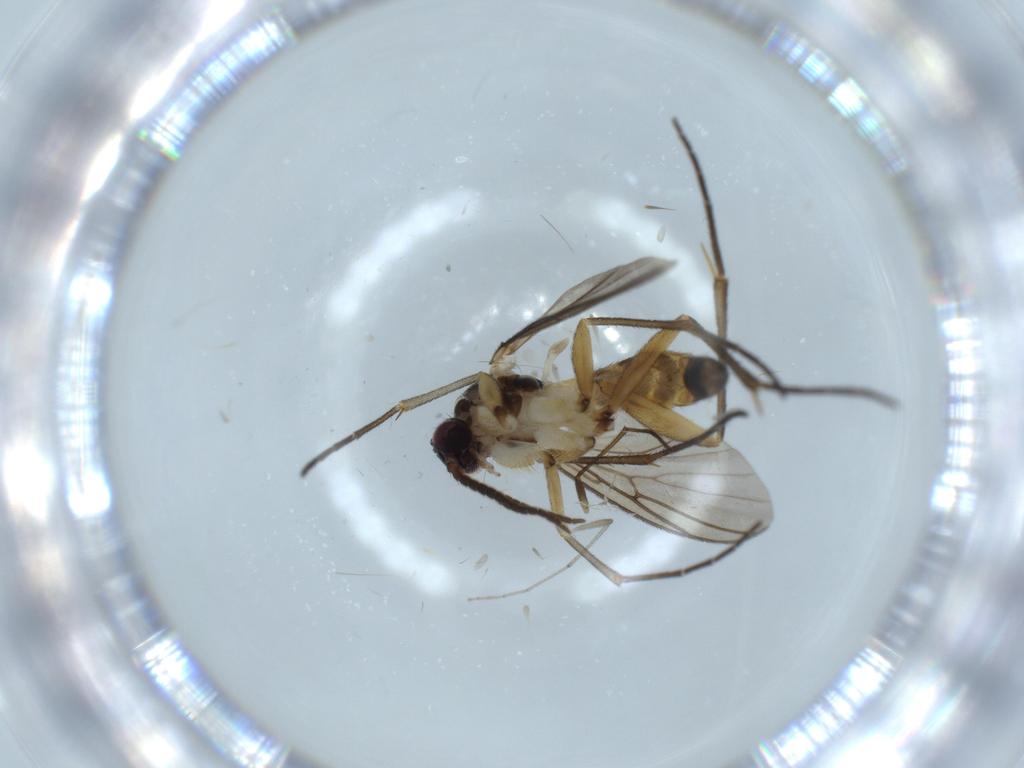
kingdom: Animalia
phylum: Arthropoda
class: Insecta
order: Diptera
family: Mycetophilidae
